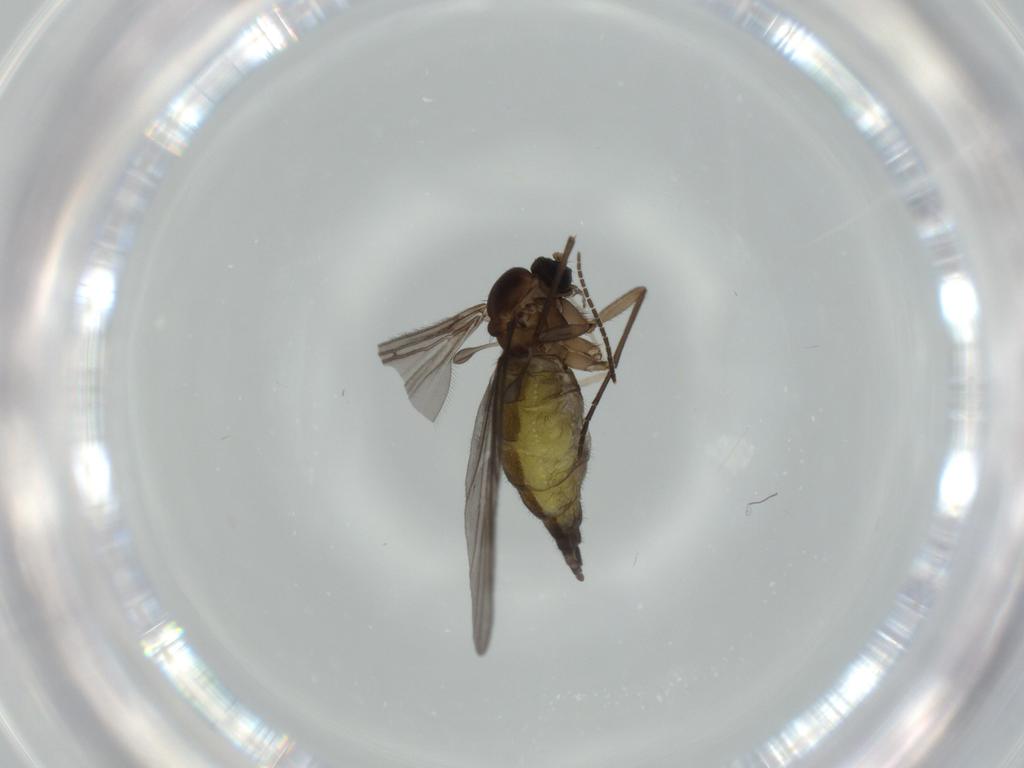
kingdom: Animalia
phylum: Arthropoda
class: Insecta
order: Diptera
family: Sciaridae
